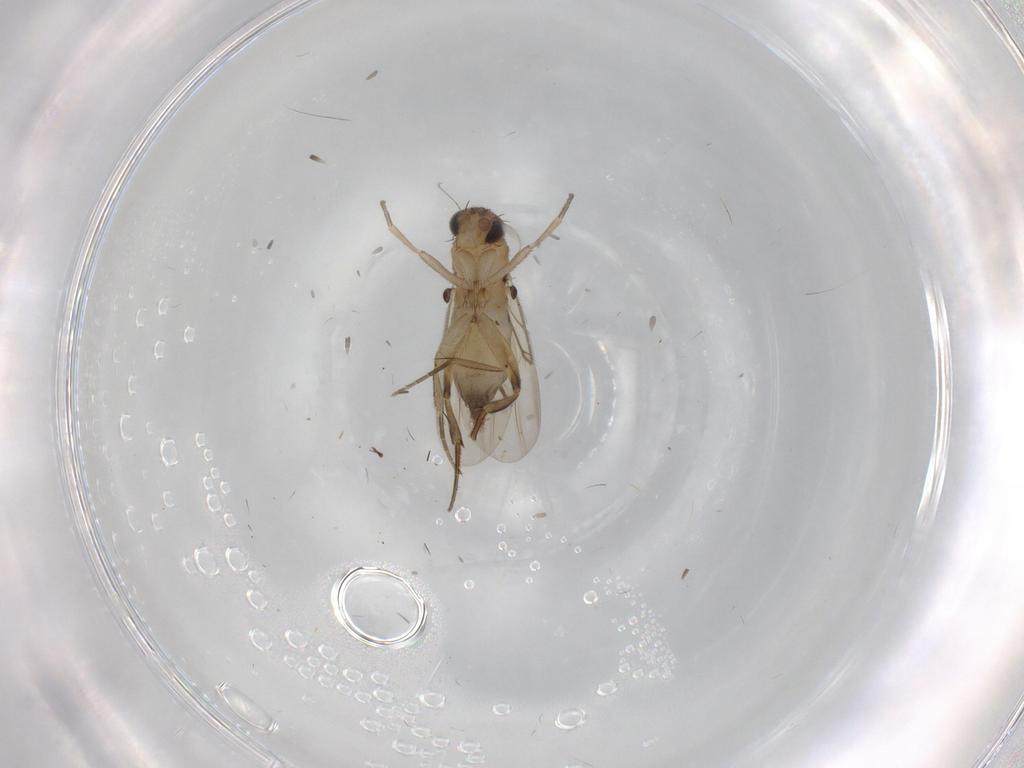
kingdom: Animalia
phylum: Arthropoda
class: Insecta
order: Diptera
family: Phoridae
